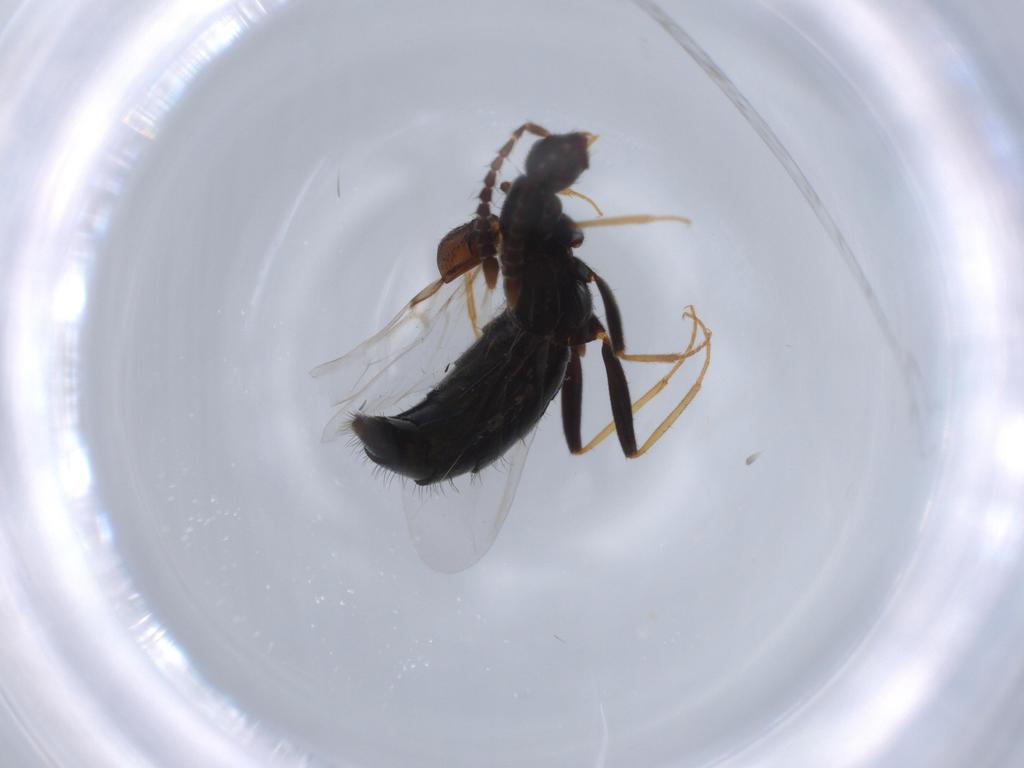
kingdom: Animalia
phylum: Arthropoda
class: Insecta
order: Coleoptera
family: Staphylinidae
